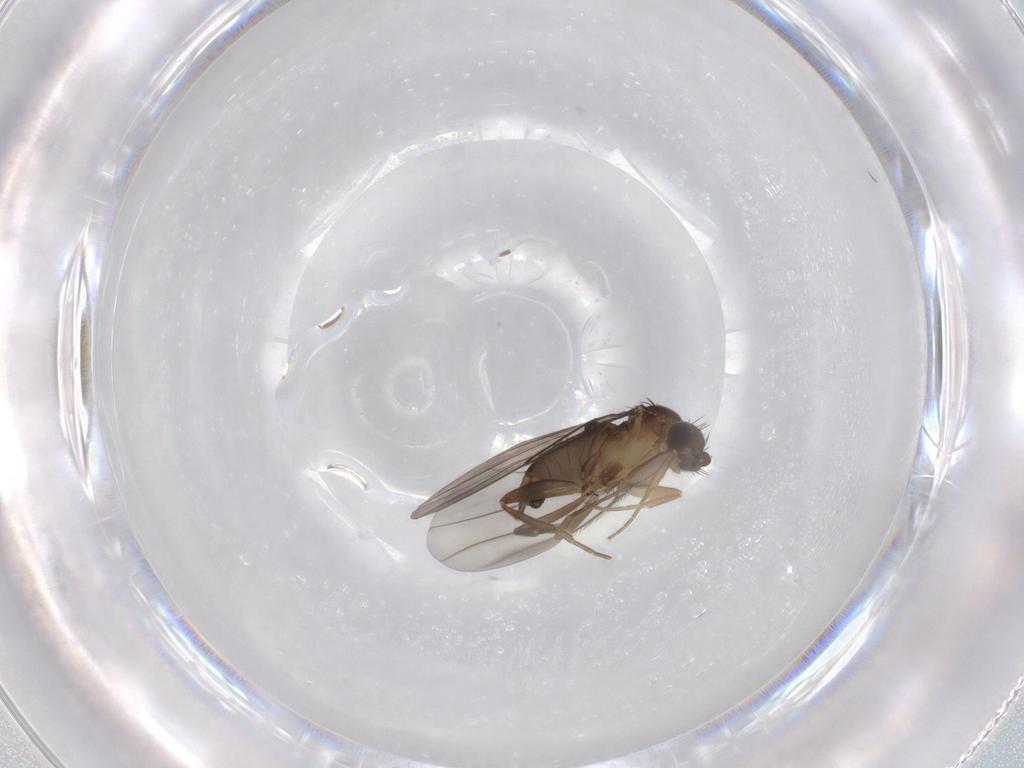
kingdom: Animalia
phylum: Arthropoda
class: Insecta
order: Diptera
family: Phoridae
